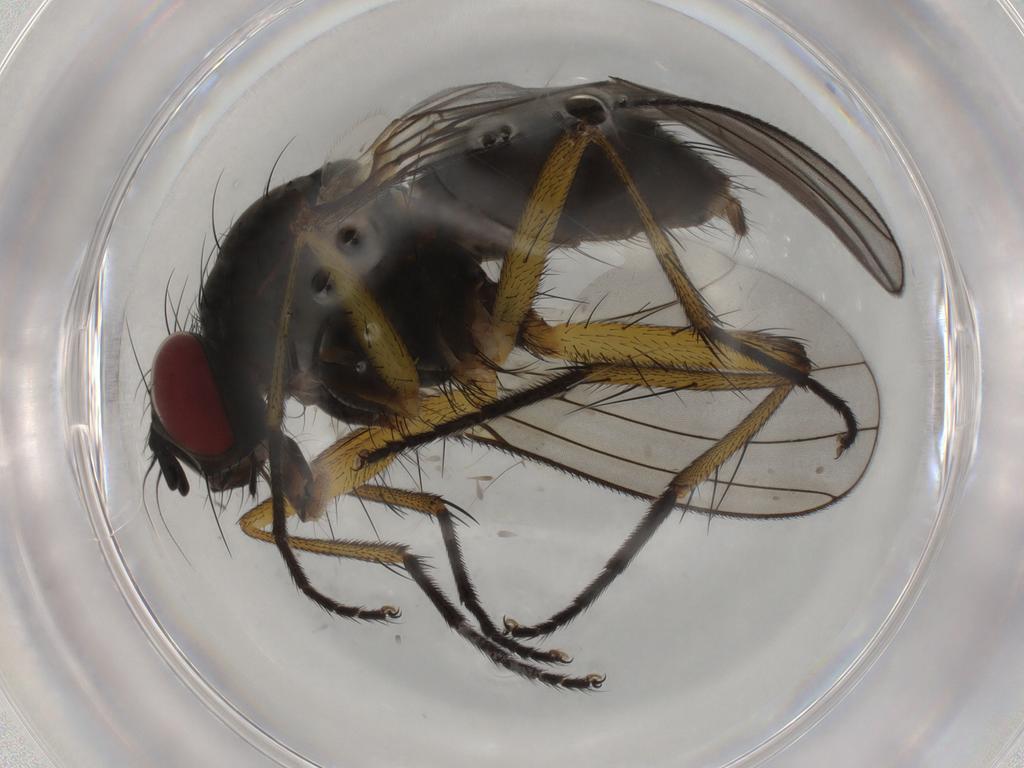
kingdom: Animalia
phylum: Arthropoda
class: Insecta
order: Diptera
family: Muscidae
